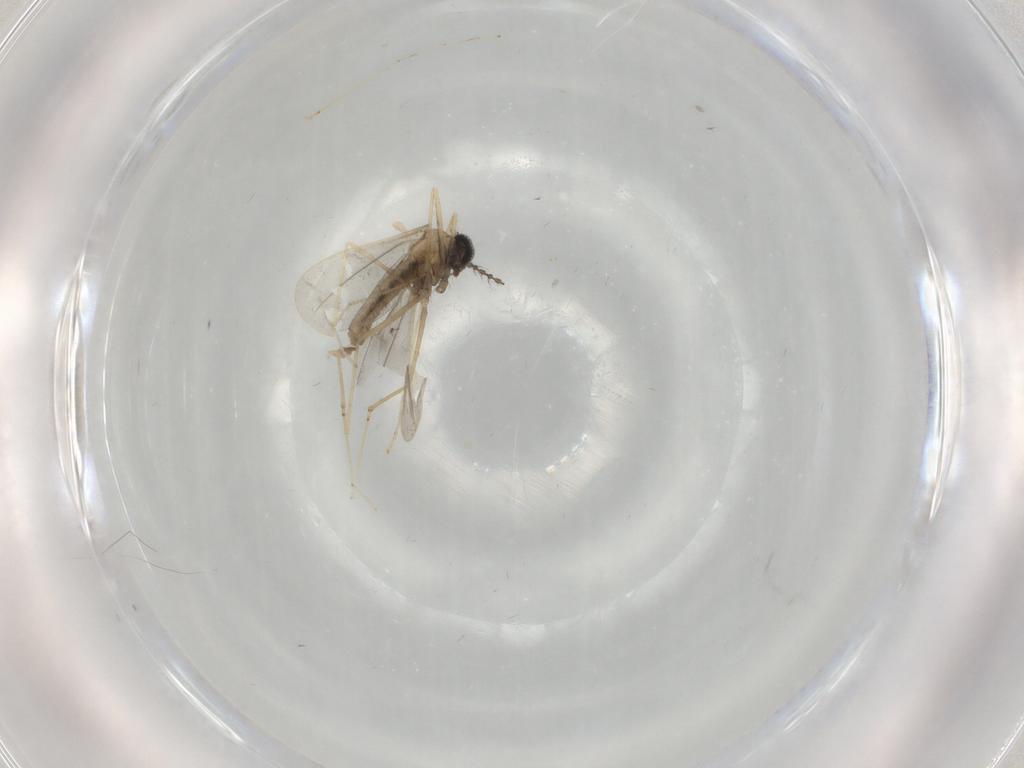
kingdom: Animalia
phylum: Arthropoda
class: Insecta
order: Diptera
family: Cecidomyiidae
